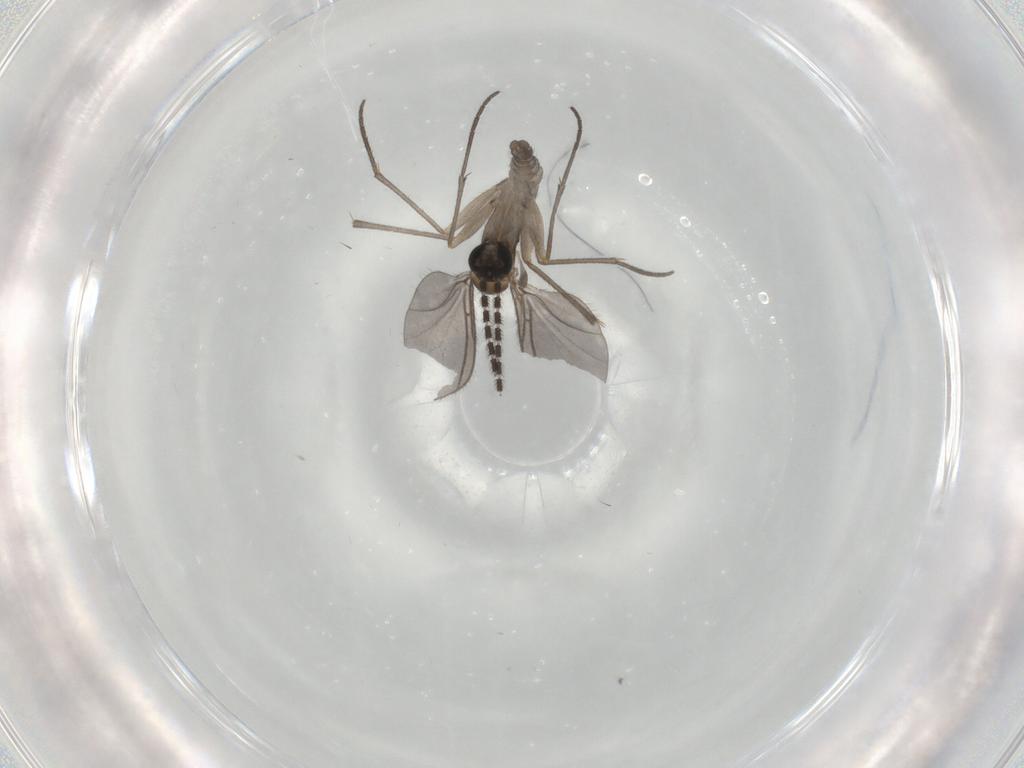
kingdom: Animalia
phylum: Arthropoda
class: Insecta
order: Diptera
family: Sciaridae
